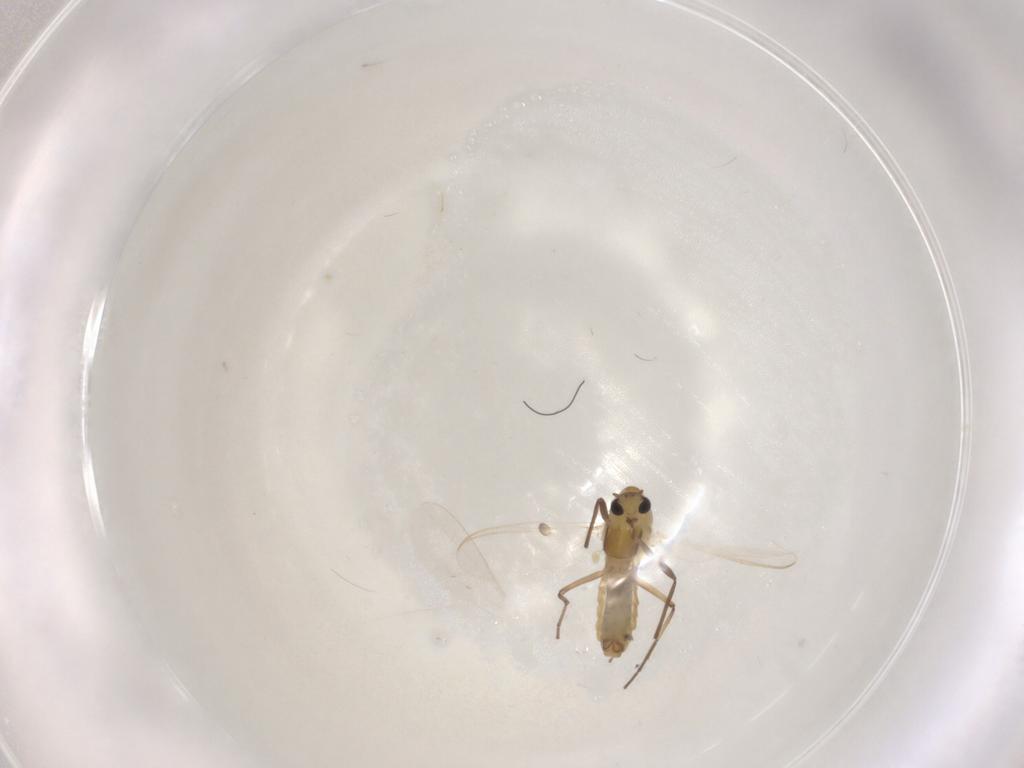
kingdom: Animalia
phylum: Arthropoda
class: Insecta
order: Diptera
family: Chironomidae
